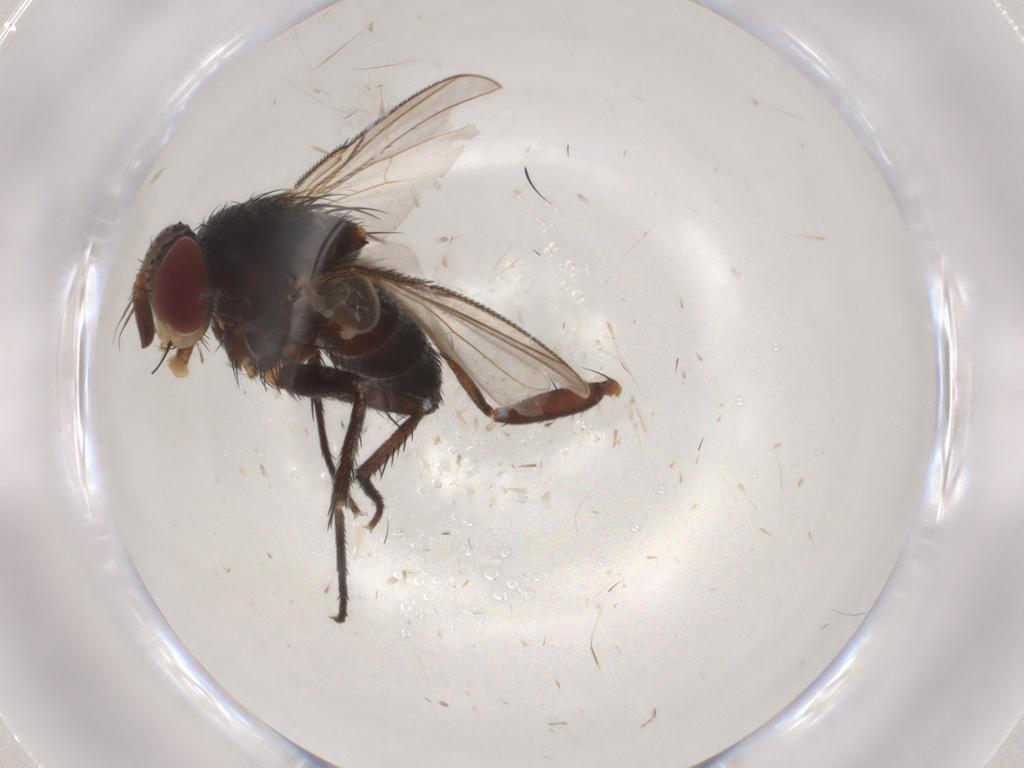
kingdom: Animalia
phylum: Arthropoda
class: Insecta
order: Diptera
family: Tachinidae
